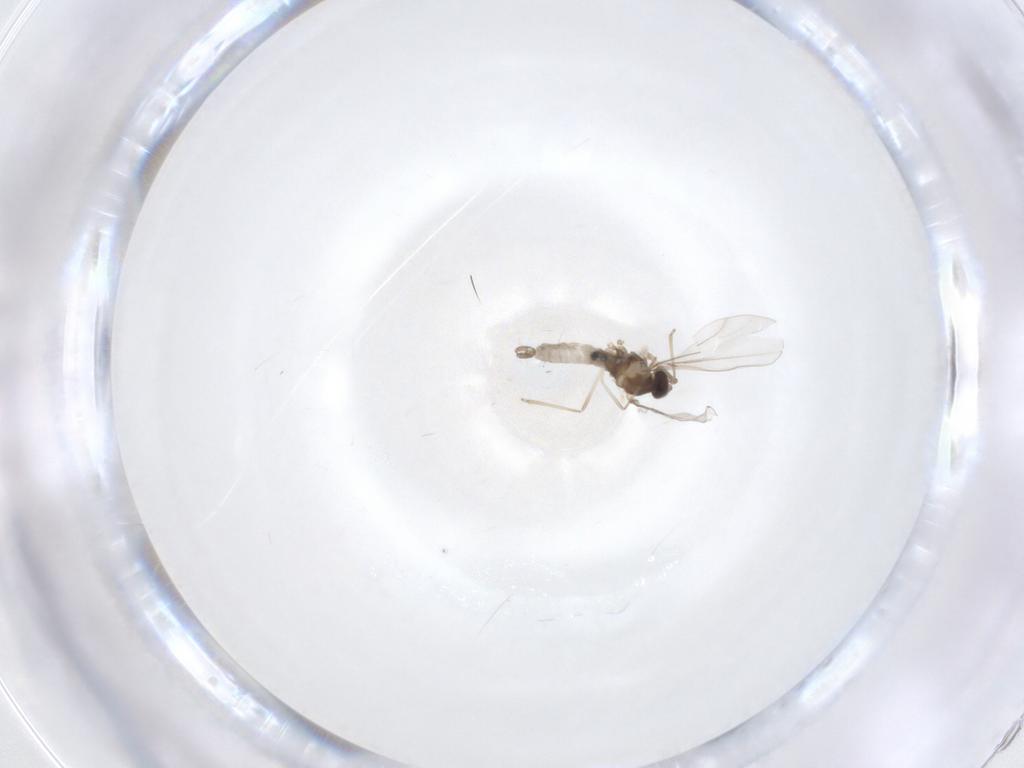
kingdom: Animalia
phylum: Arthropoda
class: Insecta
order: Diptera
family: Cecidomyiidae
